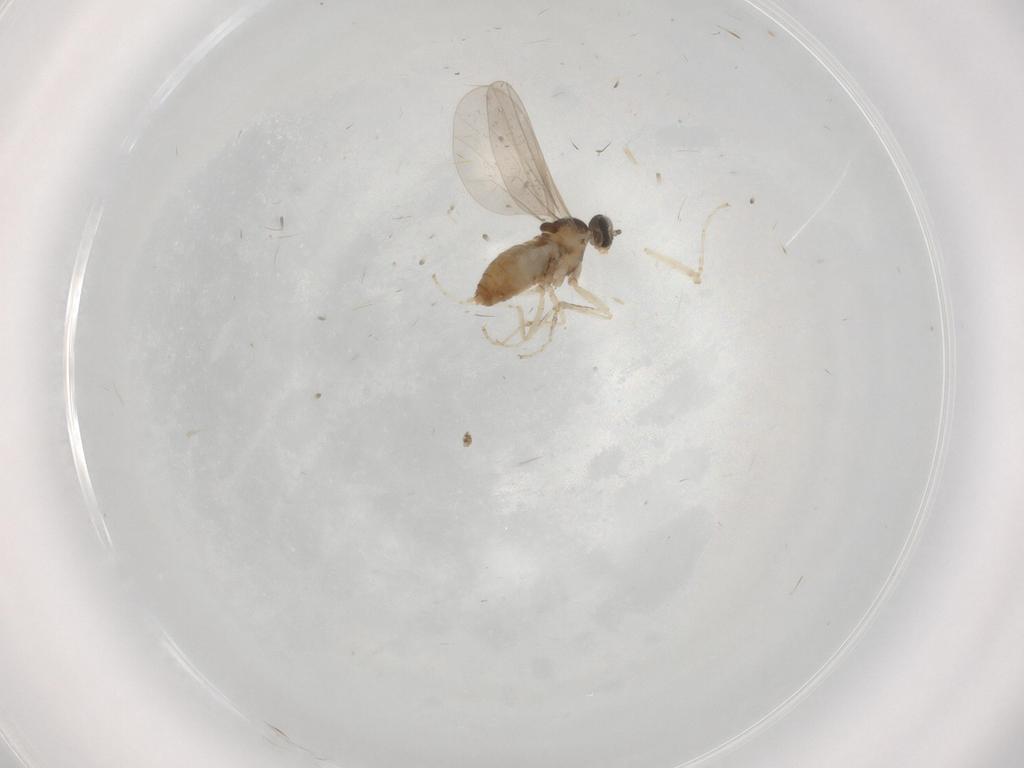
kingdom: Animalia
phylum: Arthropoda
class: Insecta
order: Diptera
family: Cecidomyiidae
